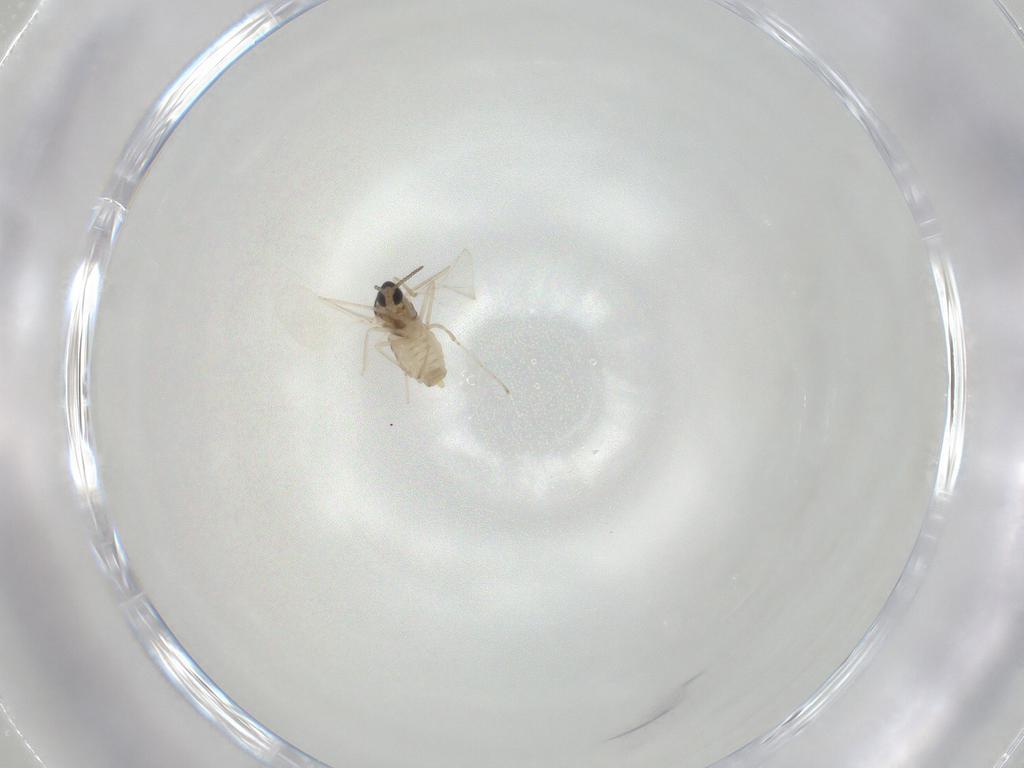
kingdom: Animalia
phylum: Arthropoda
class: Insecta
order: Diptera
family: Cecidomyiidae
